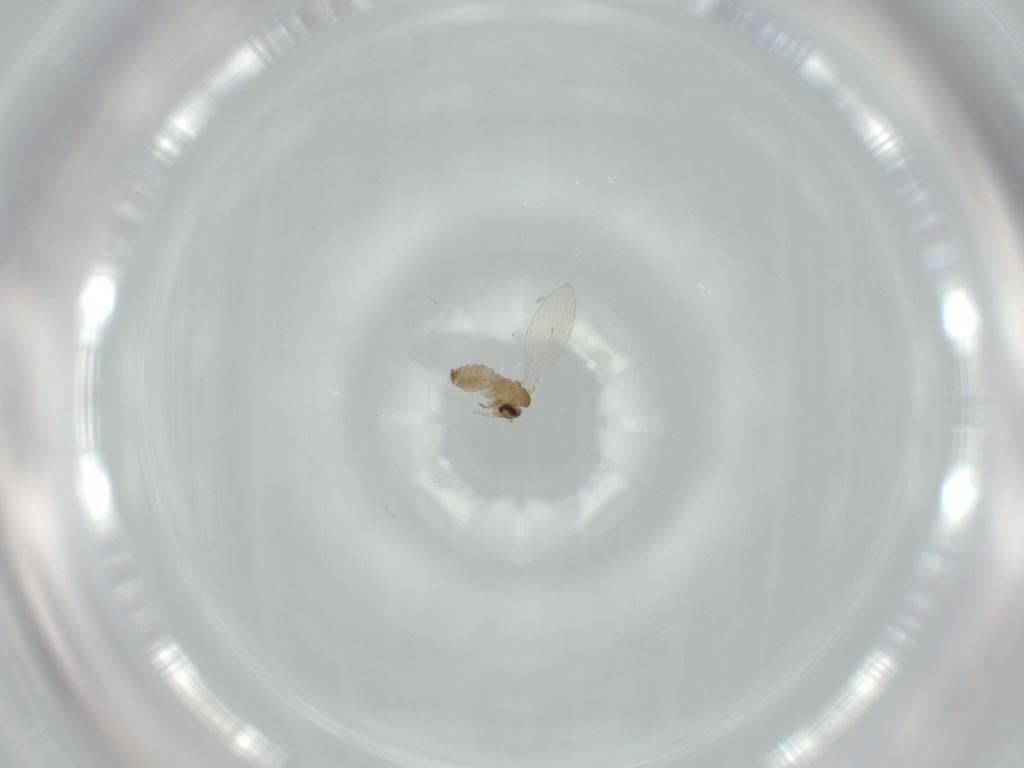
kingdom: Animalia
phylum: Arthropoda
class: Insecta
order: Diptera
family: Psychodidae
